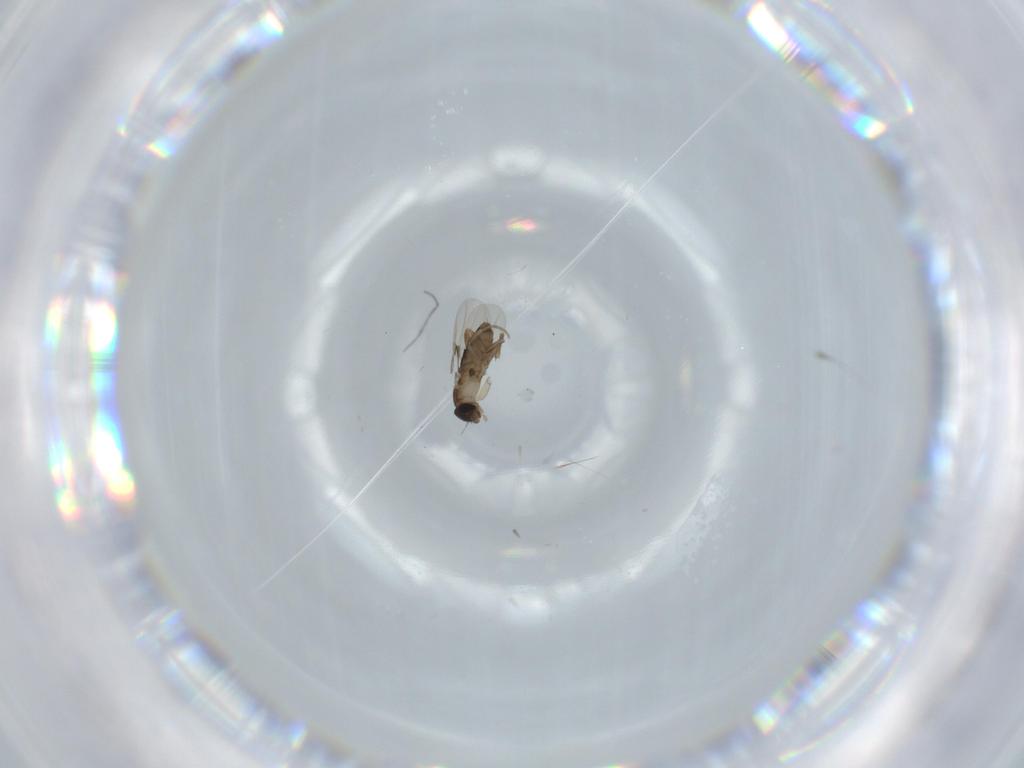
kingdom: Animalia
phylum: Arthropoda
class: Insecta
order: Diptera
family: Phoridae
